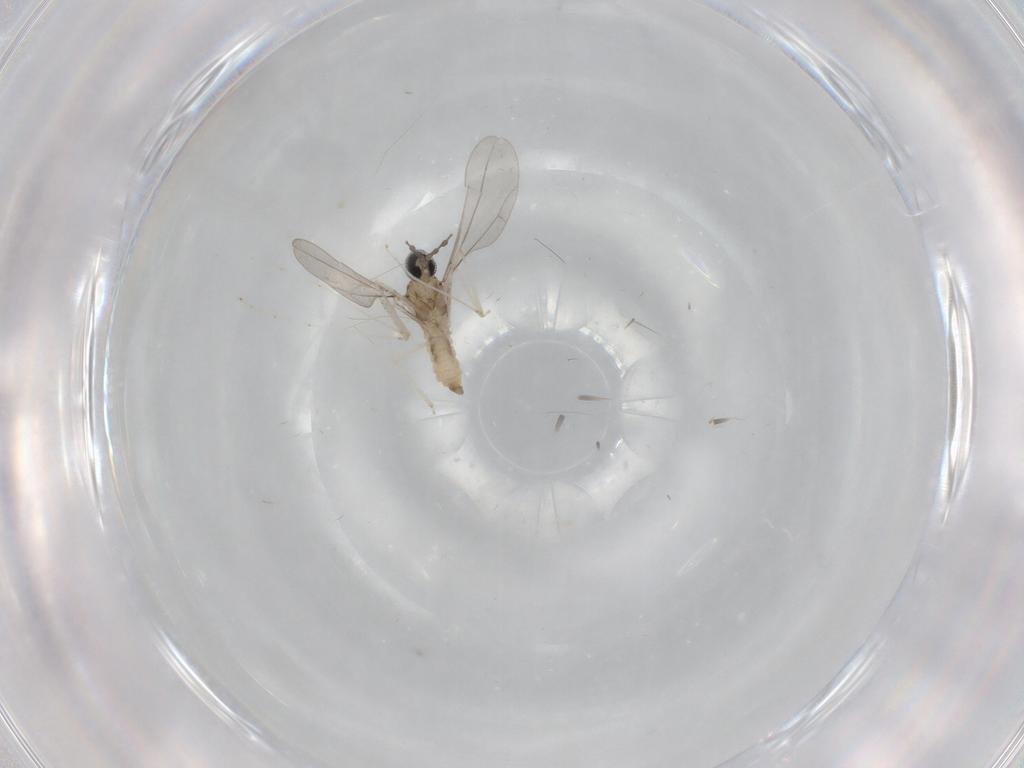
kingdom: Animalia
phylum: Arthropoda
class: Insecta
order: Diptera
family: Cecidomyiidae
